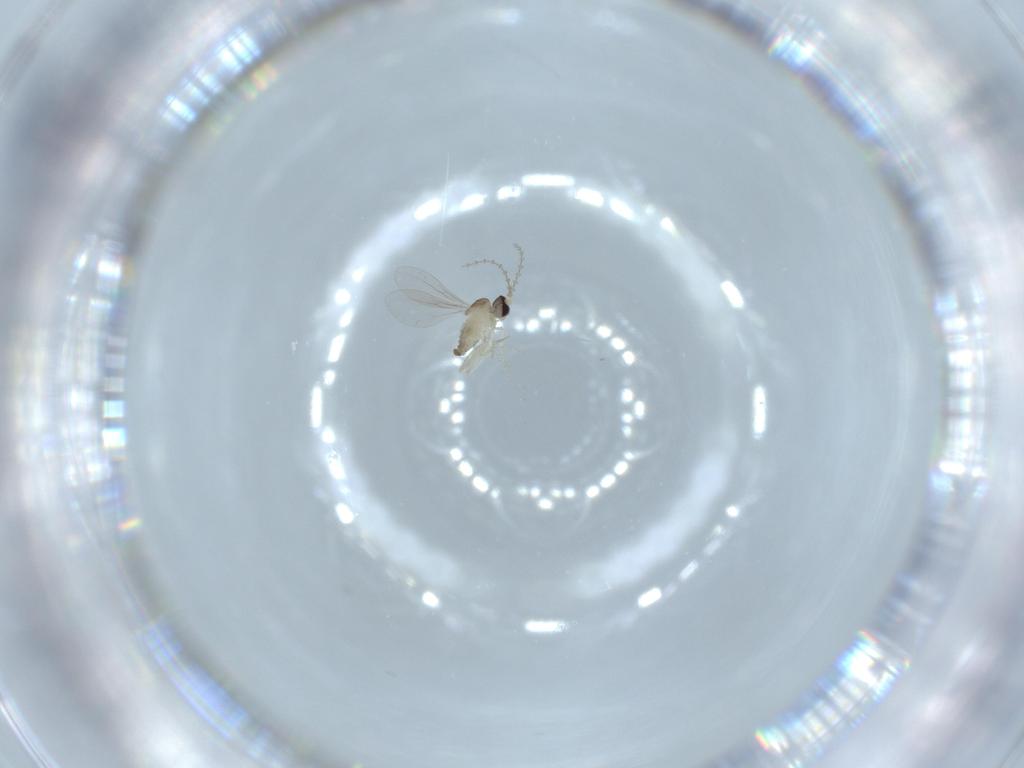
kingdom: Animalia
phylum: Arthropoda
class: Insecta
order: Diptera
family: Cecidomyiidae
